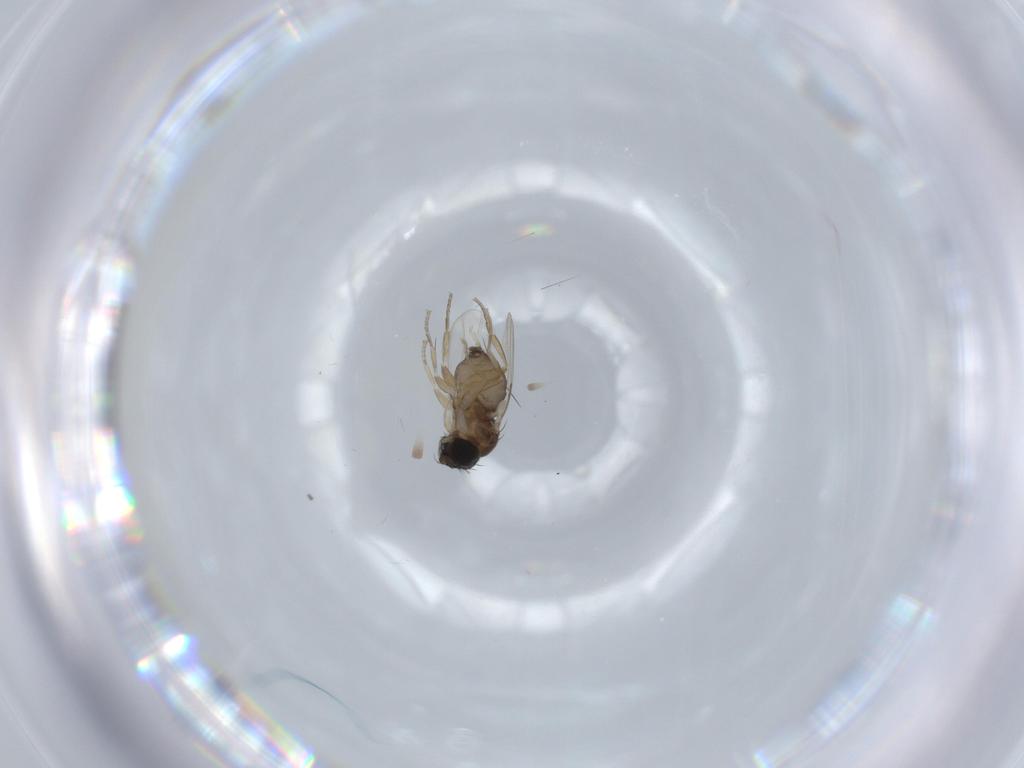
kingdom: Animalia
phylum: Arthropoda
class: Insecta
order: Diptera
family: Phoridae
